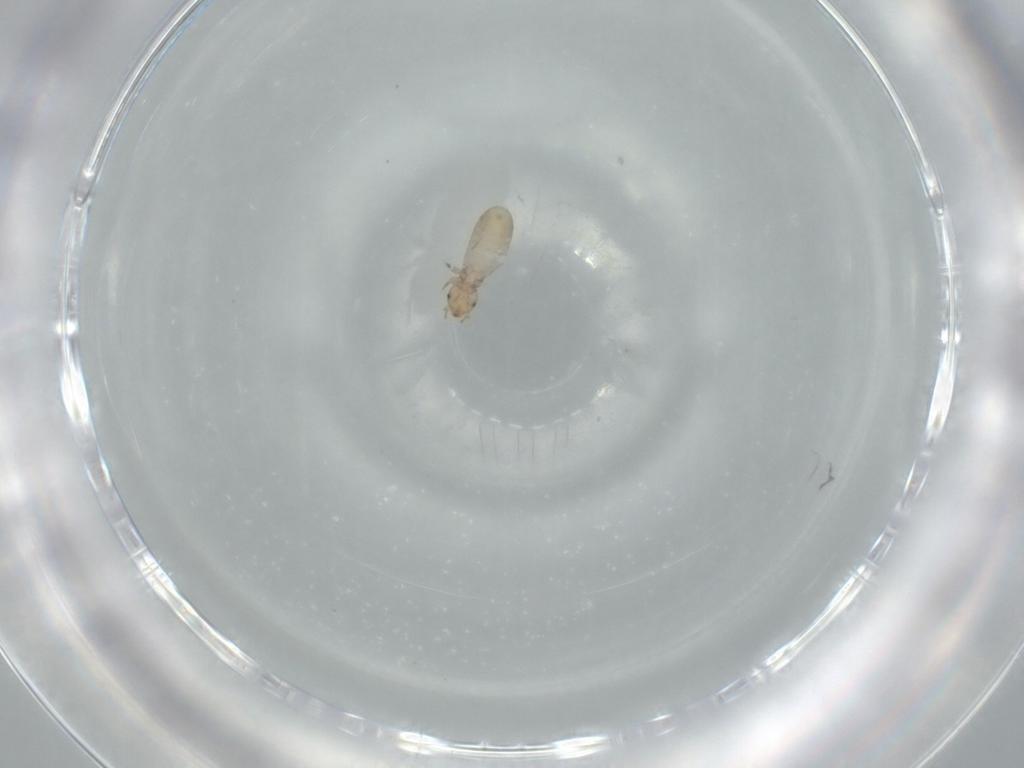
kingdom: Animalia
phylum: Arthropoda
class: Insecta
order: Psocodea
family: Liposcelididae
